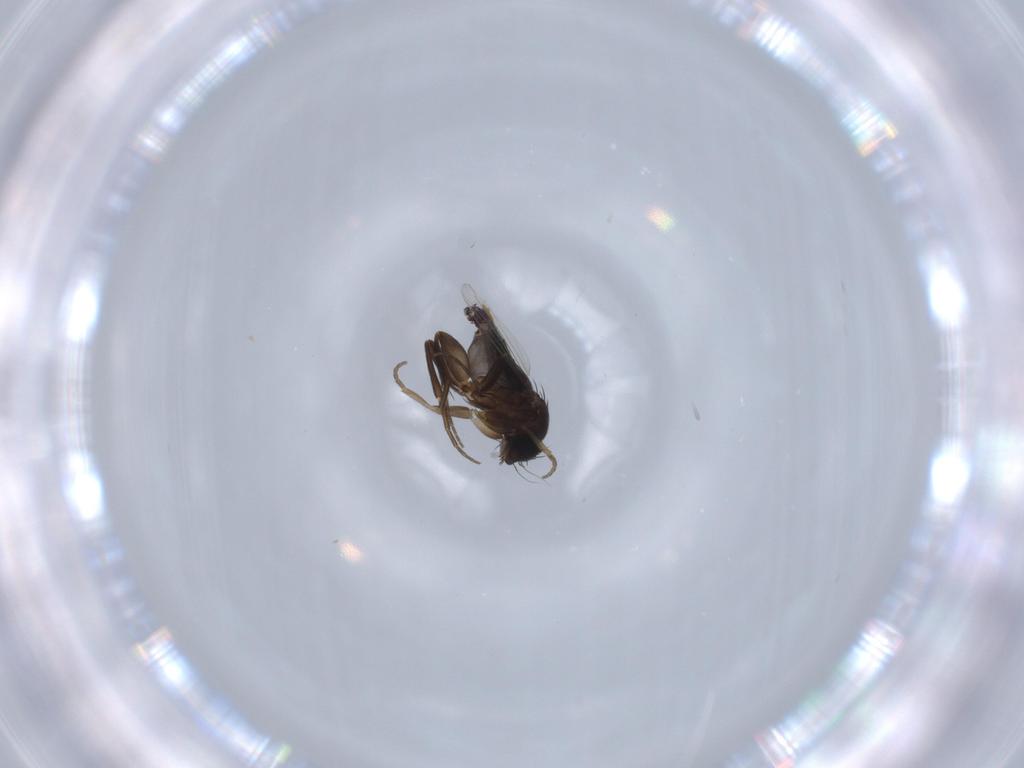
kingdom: Animalia
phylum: Arthropoda
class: Insecta
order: Diptera
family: Phoridae
